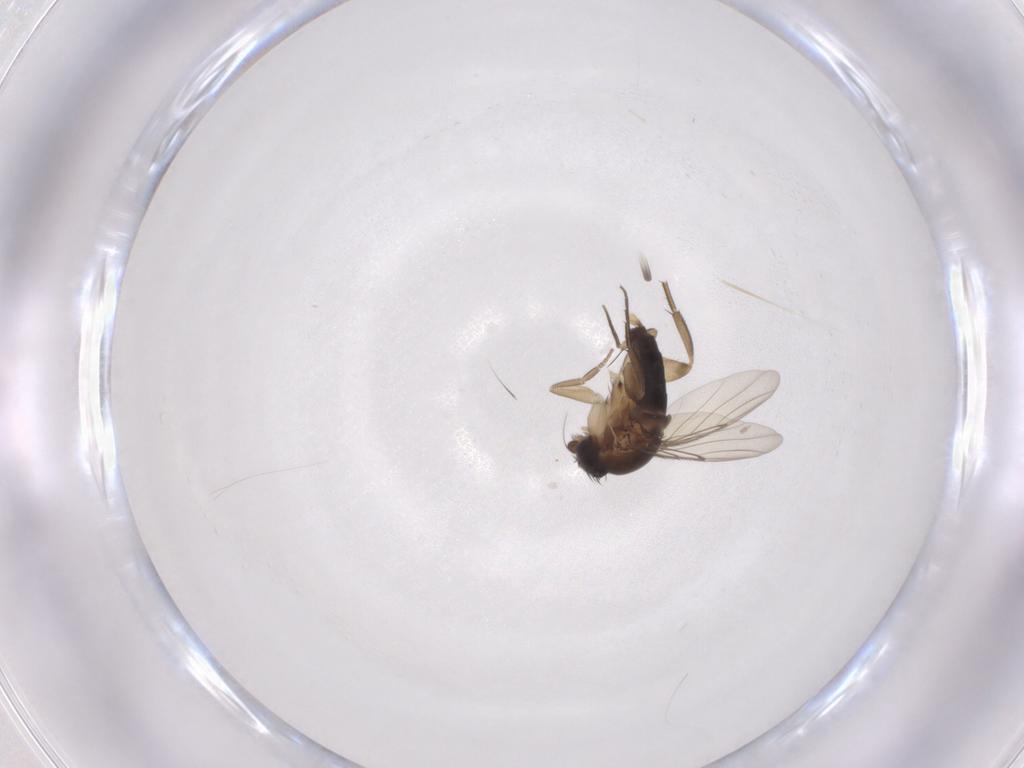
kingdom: Animalia
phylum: Arthropoda
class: Insecta
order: Diptera
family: Phoridae
